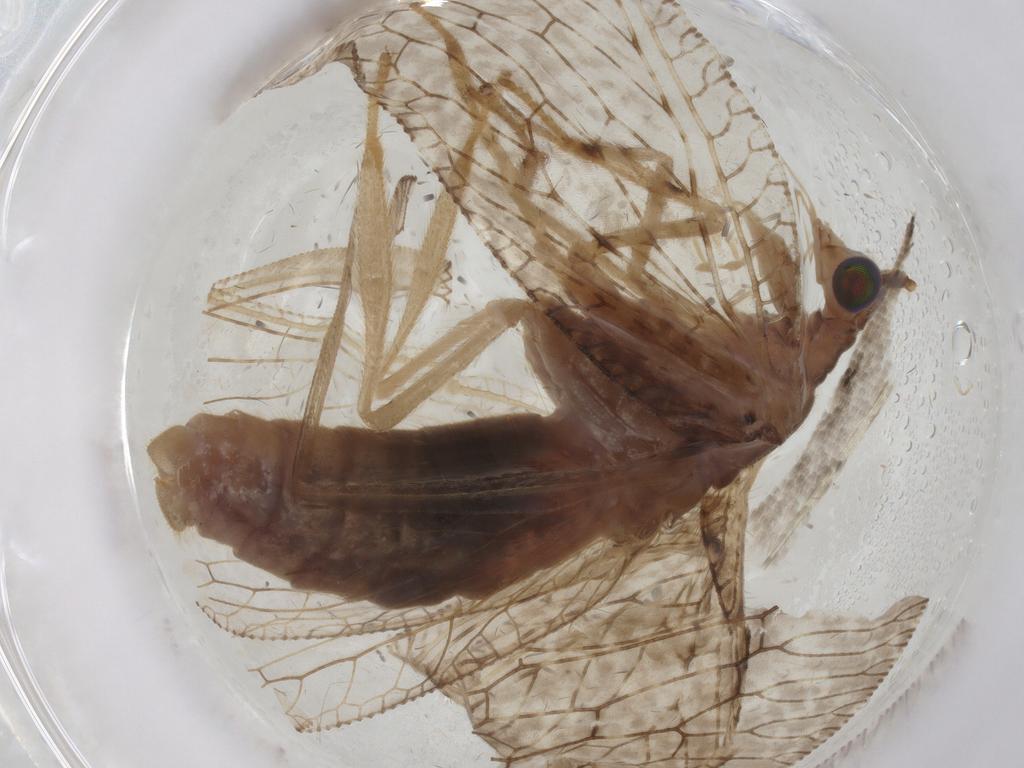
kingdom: Animalia
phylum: Arthropoda
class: Insecta
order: Neuroptera
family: Hemerobiidae
